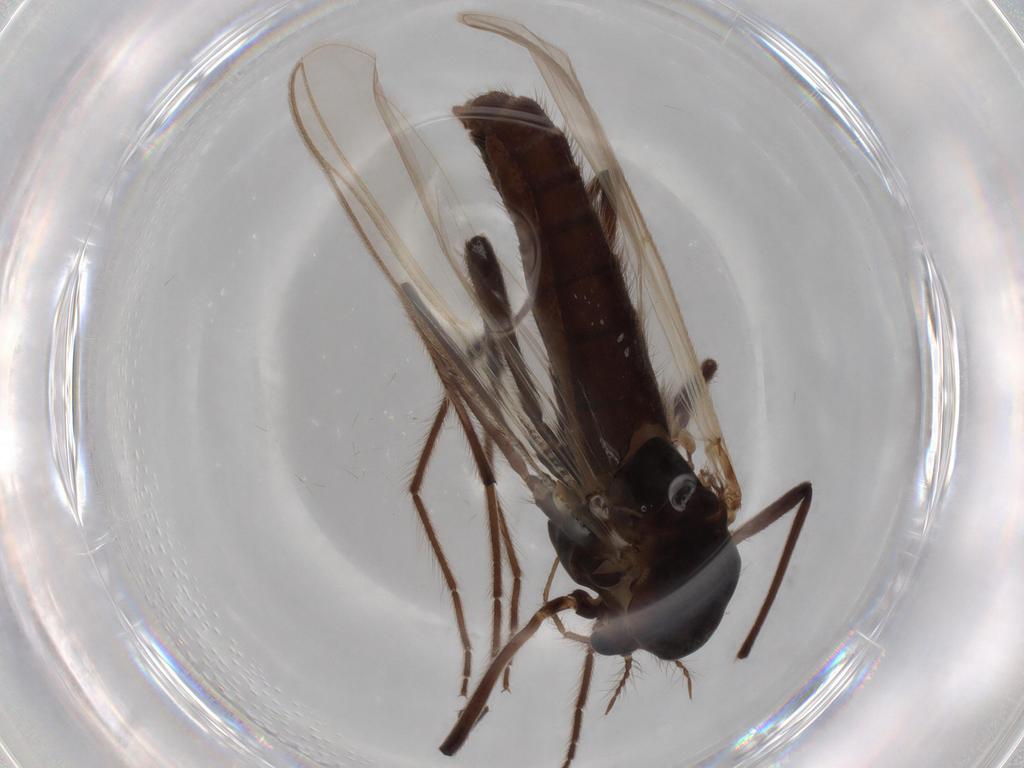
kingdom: Animalia
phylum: Arthropoda
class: Insecta
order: Diptera
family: Chironomidae
